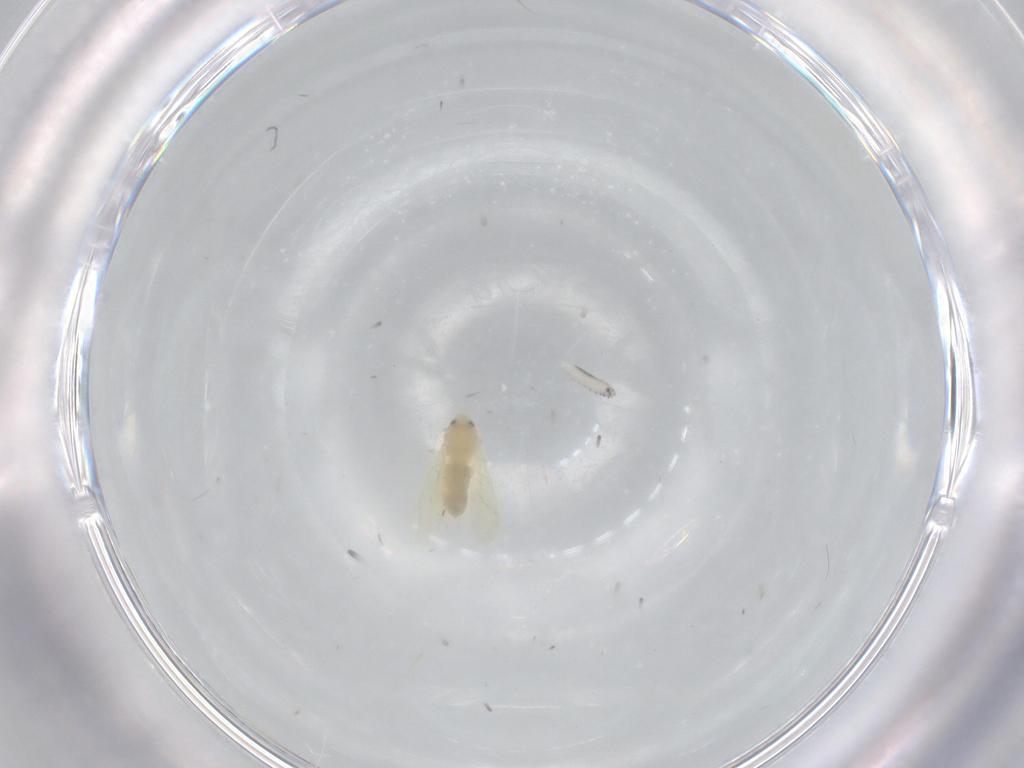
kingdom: Animalia
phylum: Arthropoda
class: Insecta
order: Hemiptera
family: Aleyrodidae
